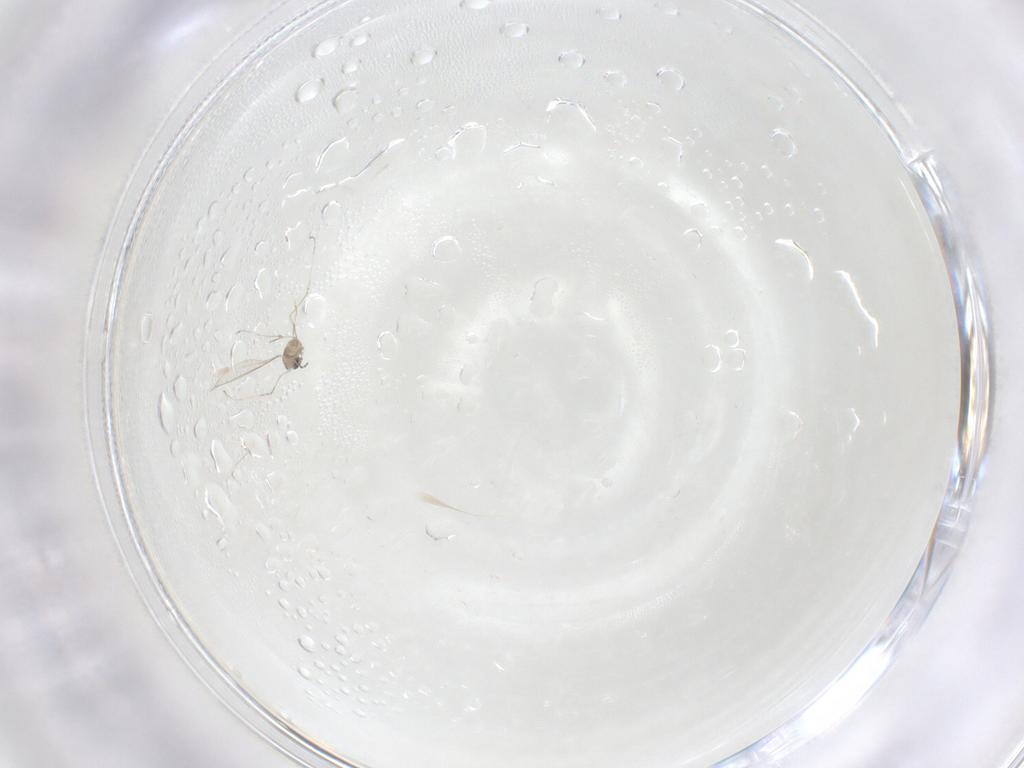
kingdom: Animalia
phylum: Arthropoda
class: Insecta
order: Diptera
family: Cecidomyiidae
